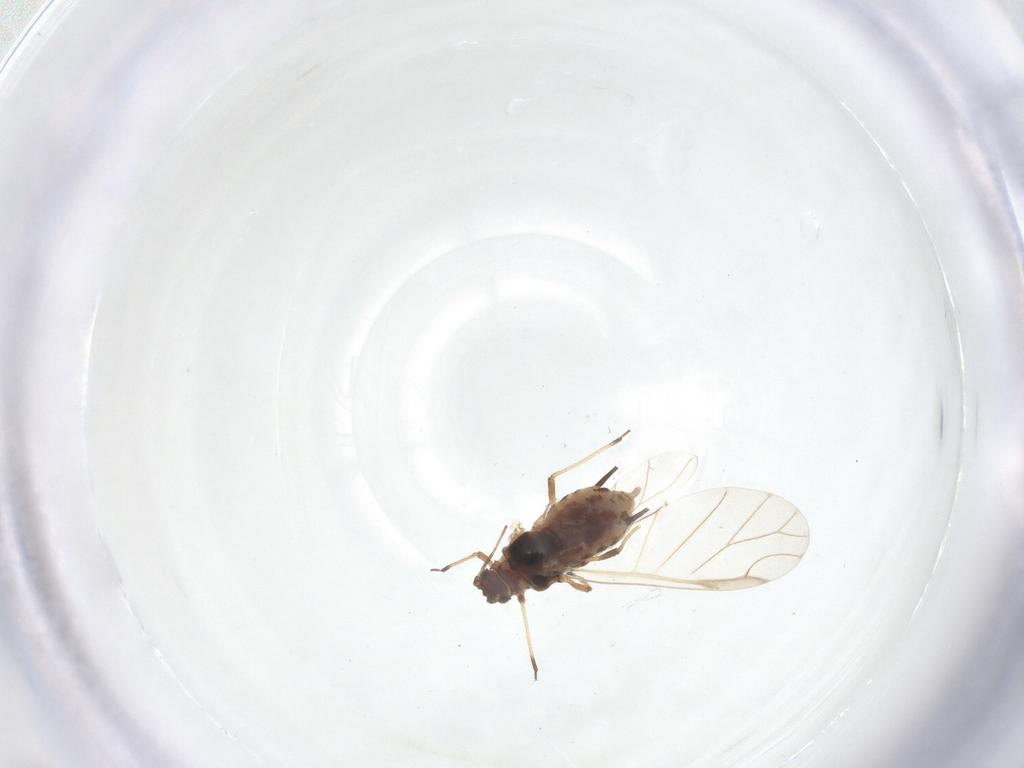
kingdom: Animalia
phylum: Arthropoda
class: Insecta
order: Hemiptera
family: Aphididae
